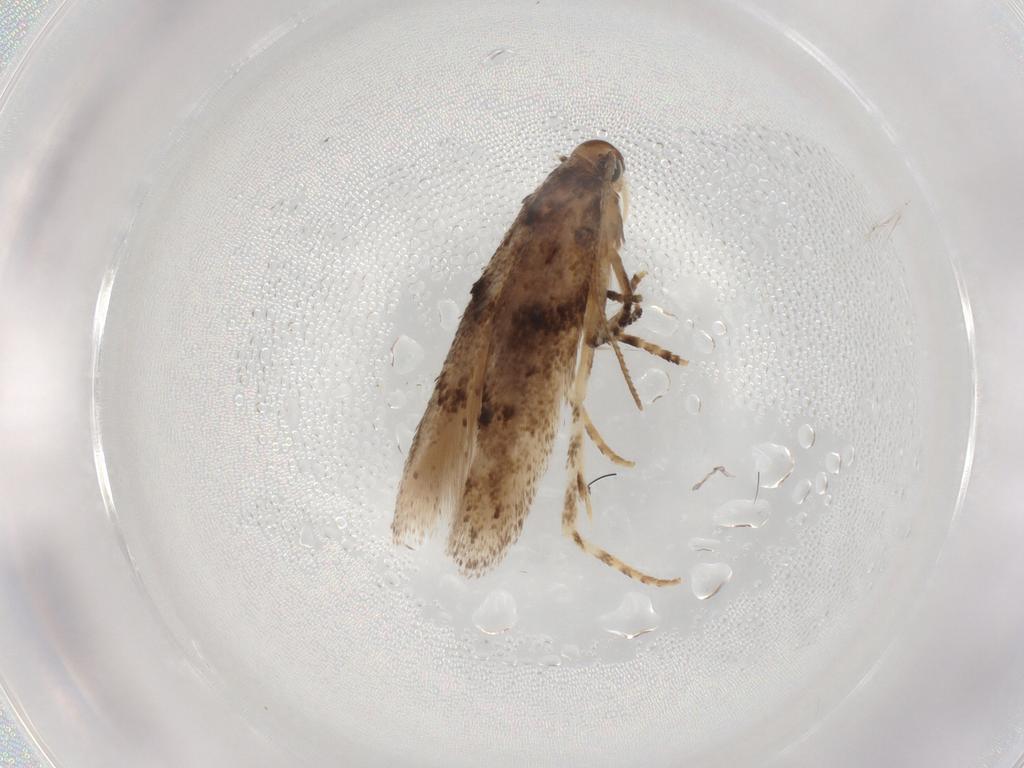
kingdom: Animalia
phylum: Arthropoda
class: Insecta
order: Lepidoptera
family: Gelechiidae
